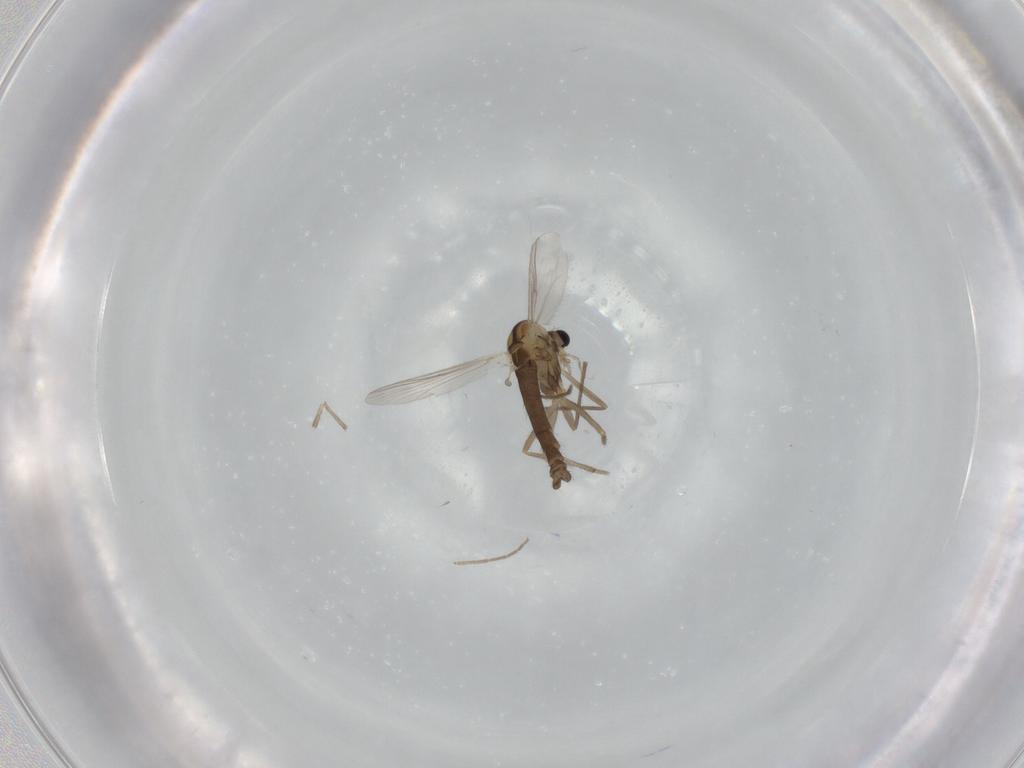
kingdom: Animalia
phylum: Arthropoda
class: Insecta
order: Diptera
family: Chironomidae
